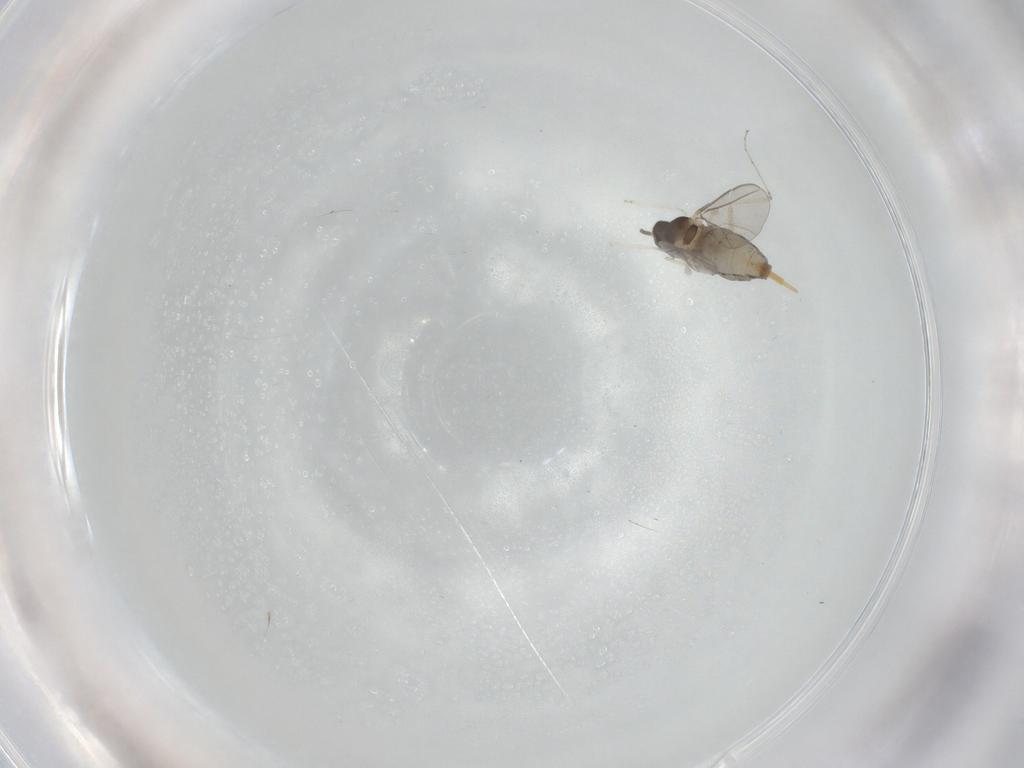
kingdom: Animalia
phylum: Arthropoda
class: Insecta
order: Diptera
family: Cecidomyiidae
